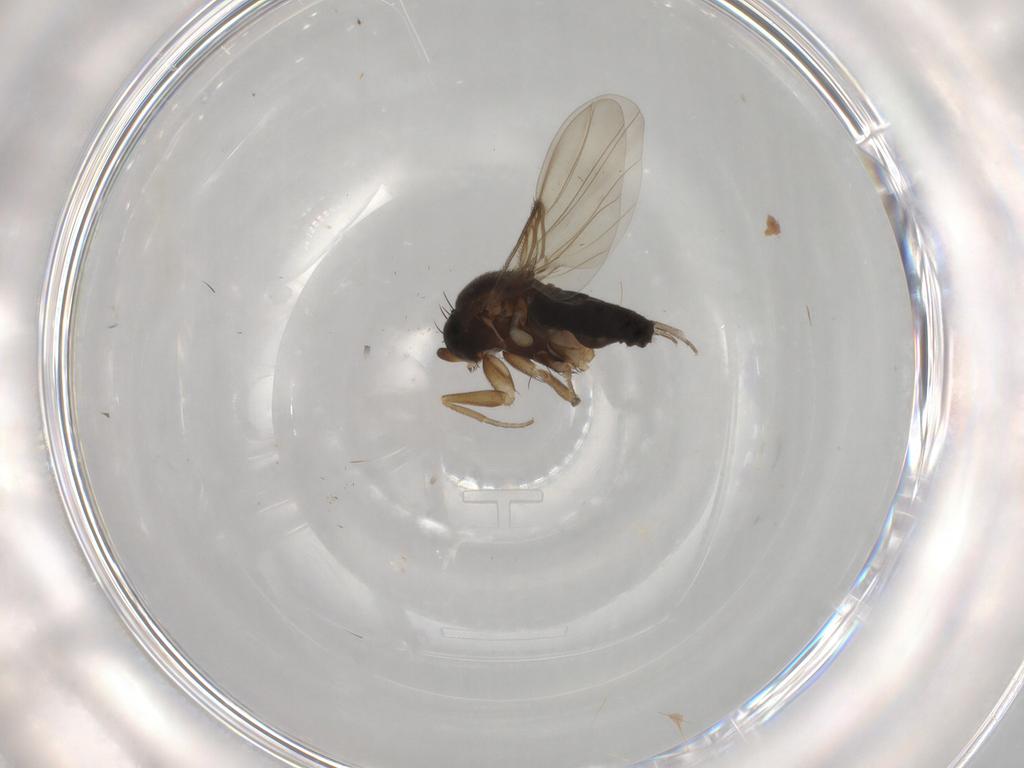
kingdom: Animalia
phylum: Arthropoda
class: Insecta
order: Diptera
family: Phoridae
